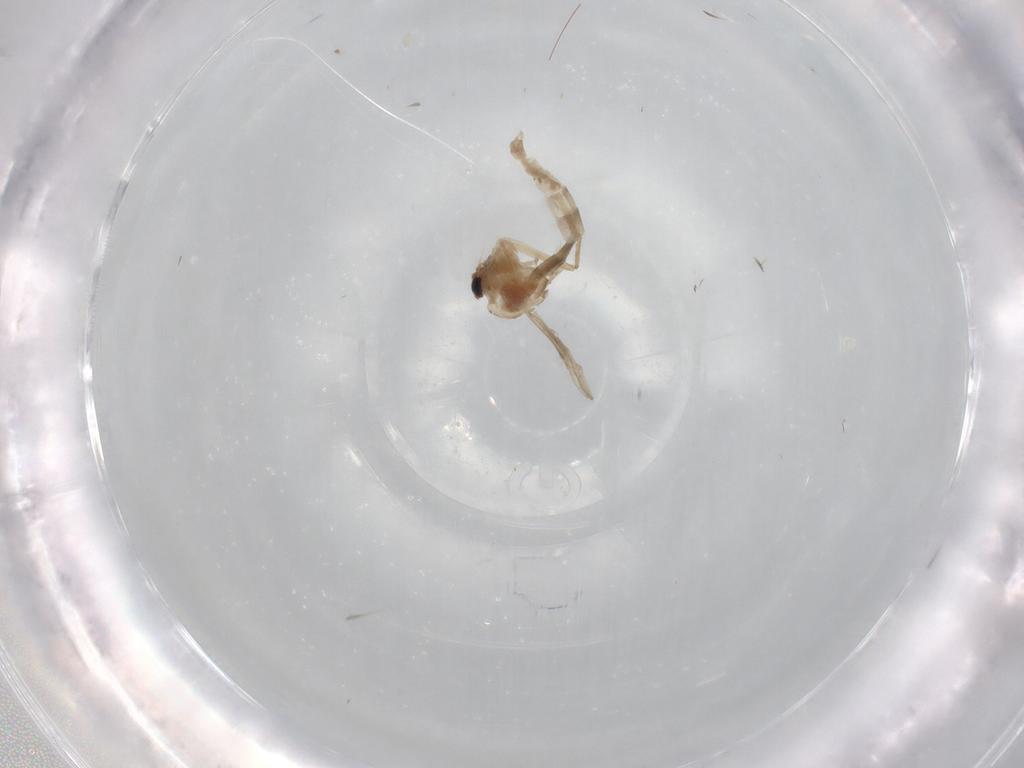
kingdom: Animalia
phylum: Arthropoda
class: Insecta
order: Diptera
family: Chironomidae
